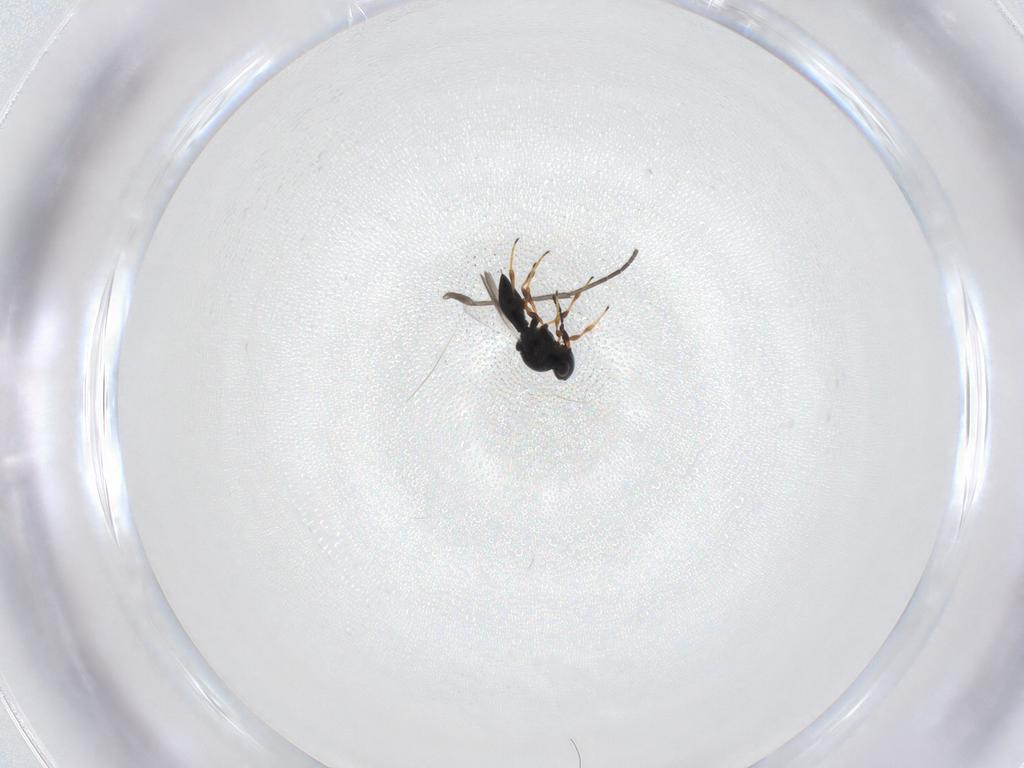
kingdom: Animalia
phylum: Arthropoda
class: Insecta
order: Hymenoptera
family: Platygastridae
